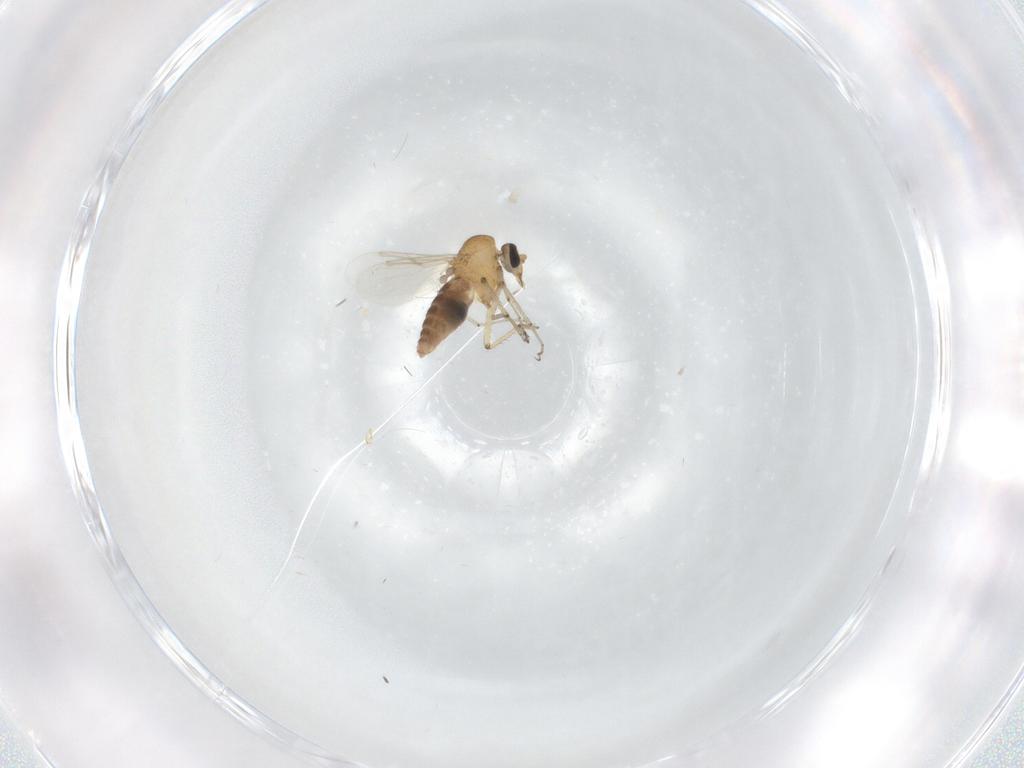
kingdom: Animalia
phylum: Arthropoda
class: Insecta
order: Diptera
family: Ceratopogonidae
